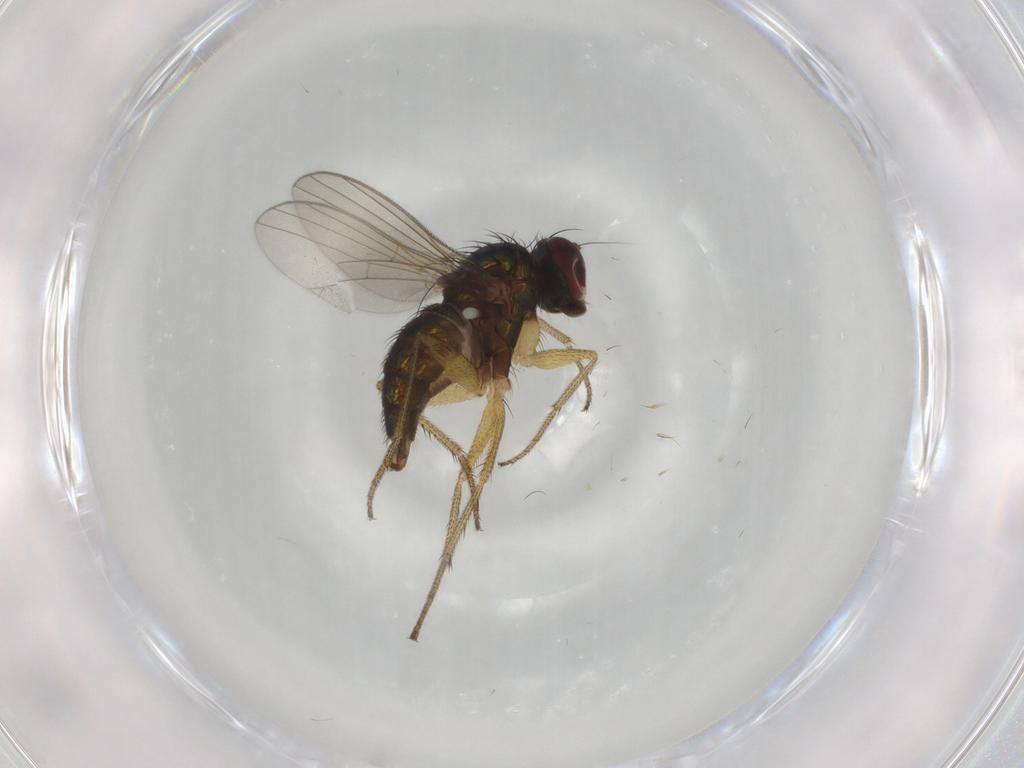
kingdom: Animalia
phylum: Arthropoda
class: Insecta
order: Diptera
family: Dolichopodidae
